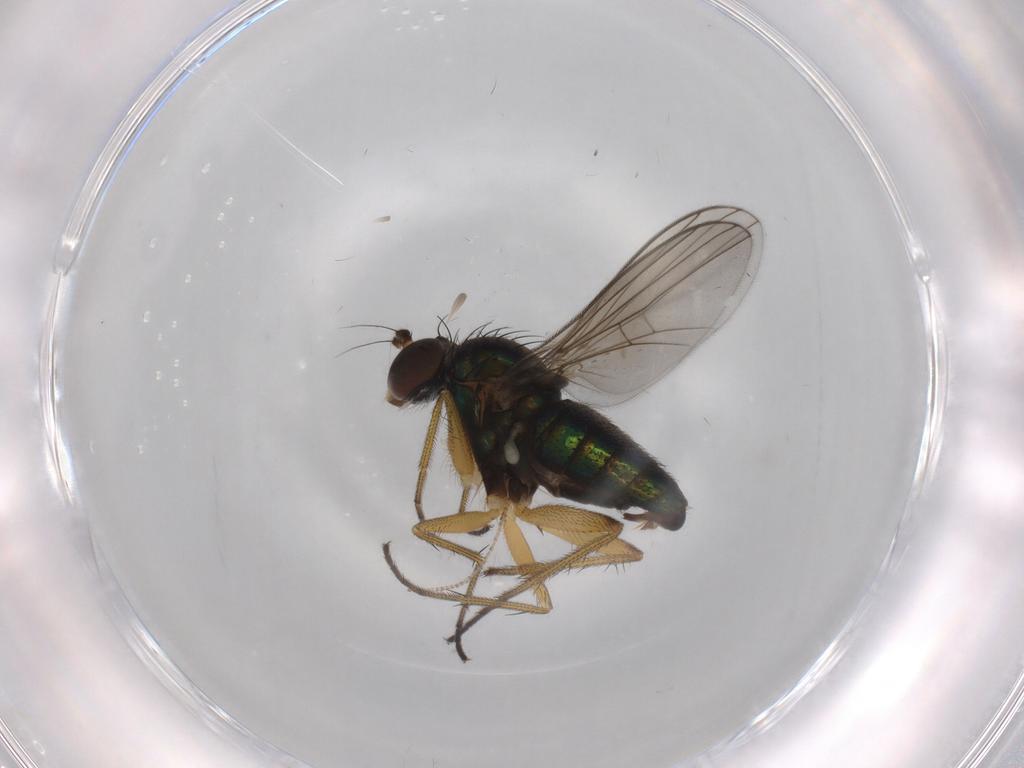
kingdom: Animalia
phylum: Arthropoda
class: Insecta
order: Diptera
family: Dolichopodidae
